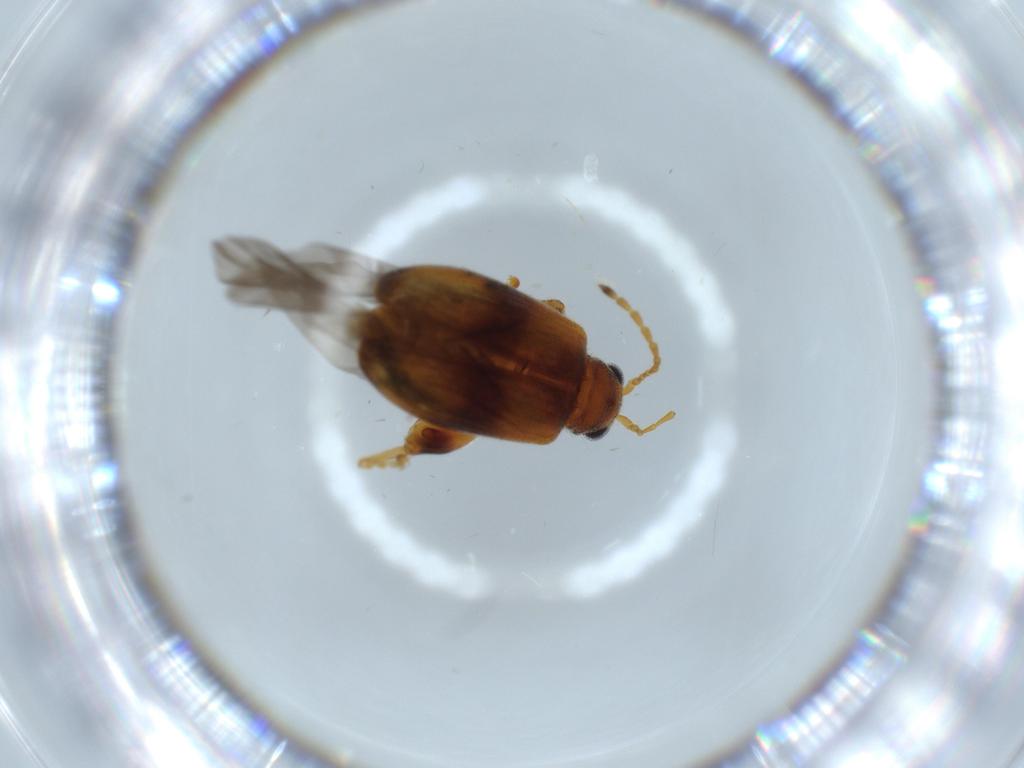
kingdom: Animalia
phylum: Arthropoda
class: Insecta
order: Coleoptera
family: Chrysomelidae
